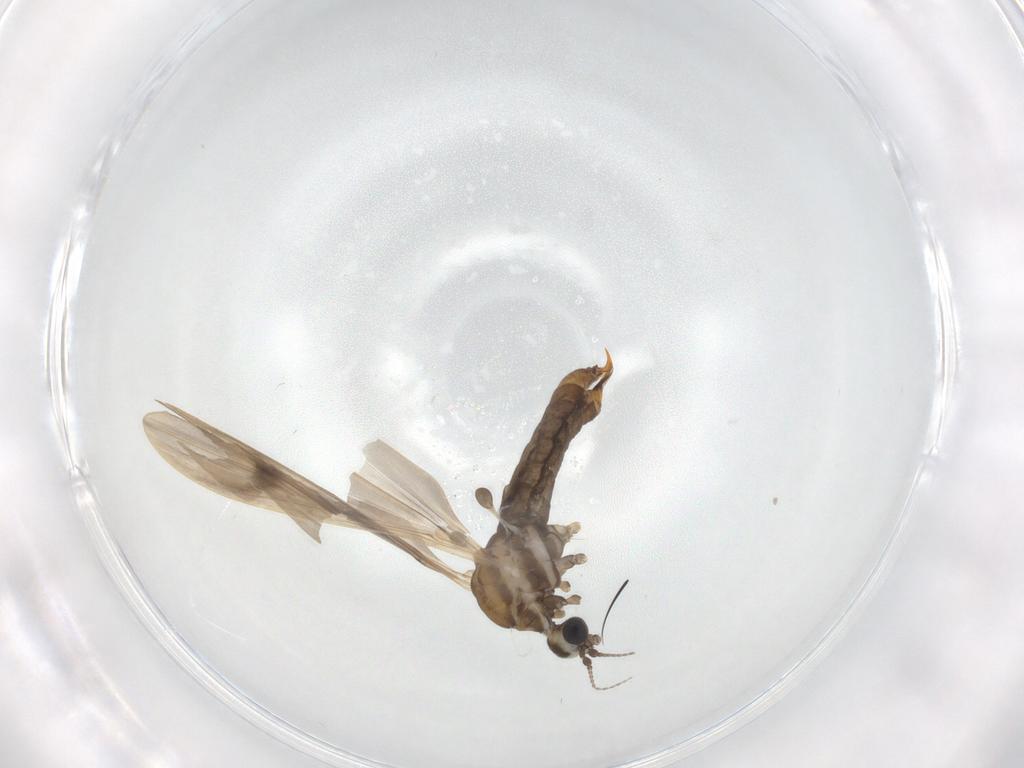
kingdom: Animalia
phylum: Arthropoda
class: Insecta
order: Diptera
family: Limoniidae
